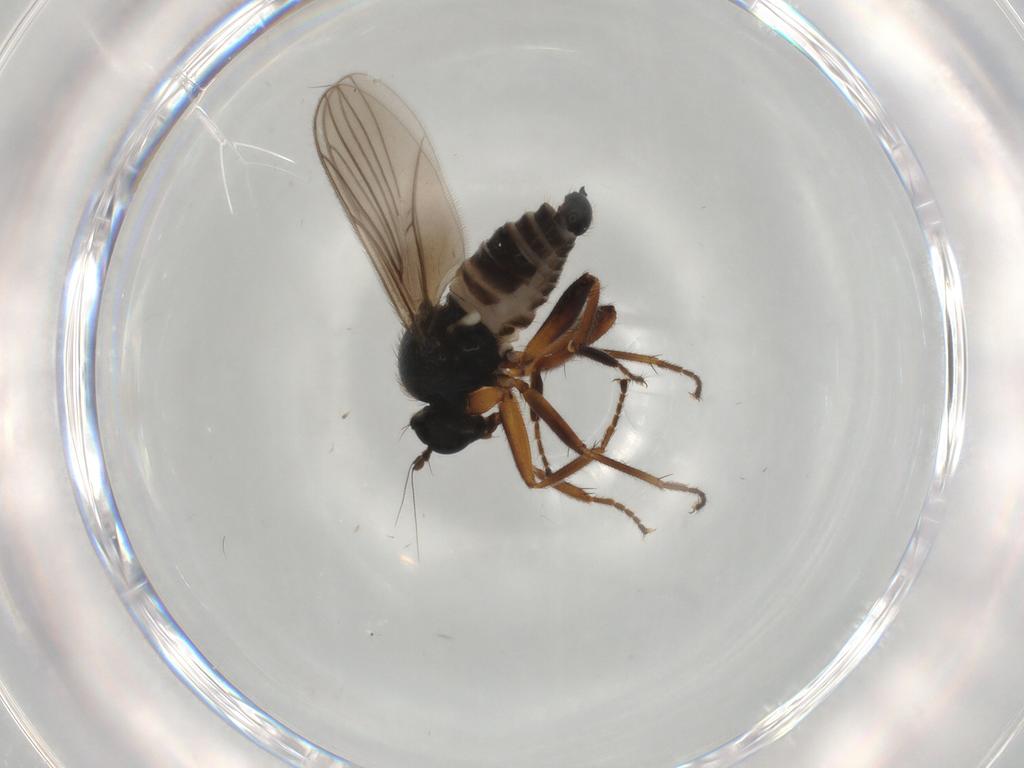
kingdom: Animalia
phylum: Arthropoda
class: Insecta
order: Diptera
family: Hybotidae
